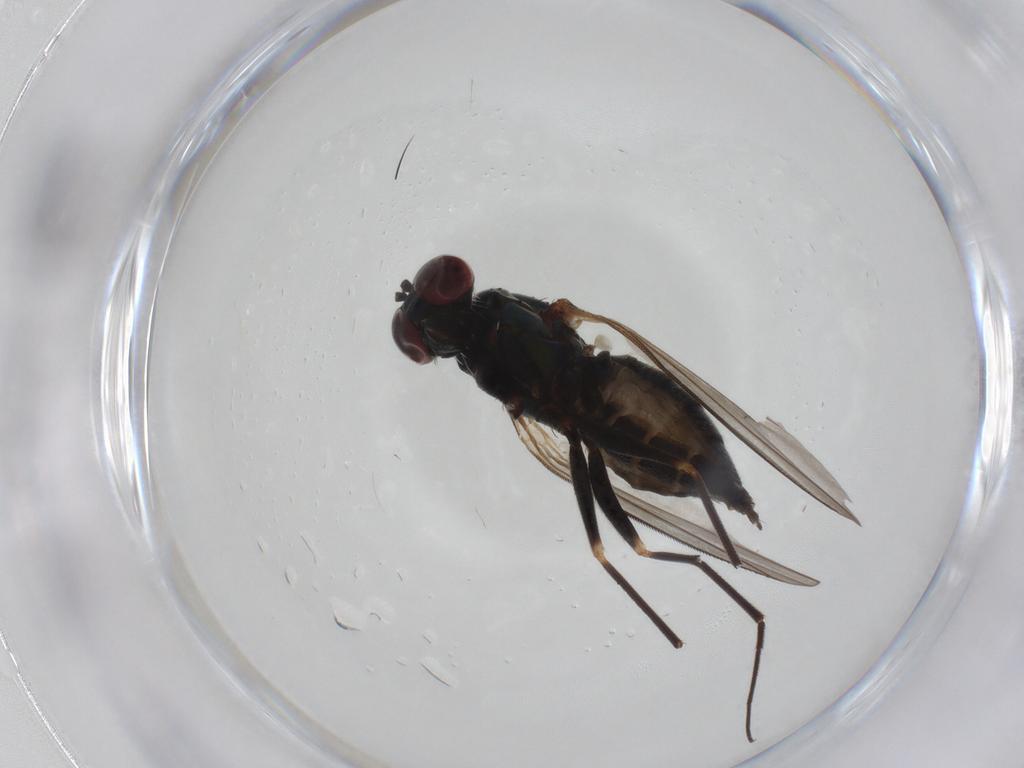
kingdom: Animalia
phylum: Arthropoda
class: Insecta
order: Diptera
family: Dolichopodidae
